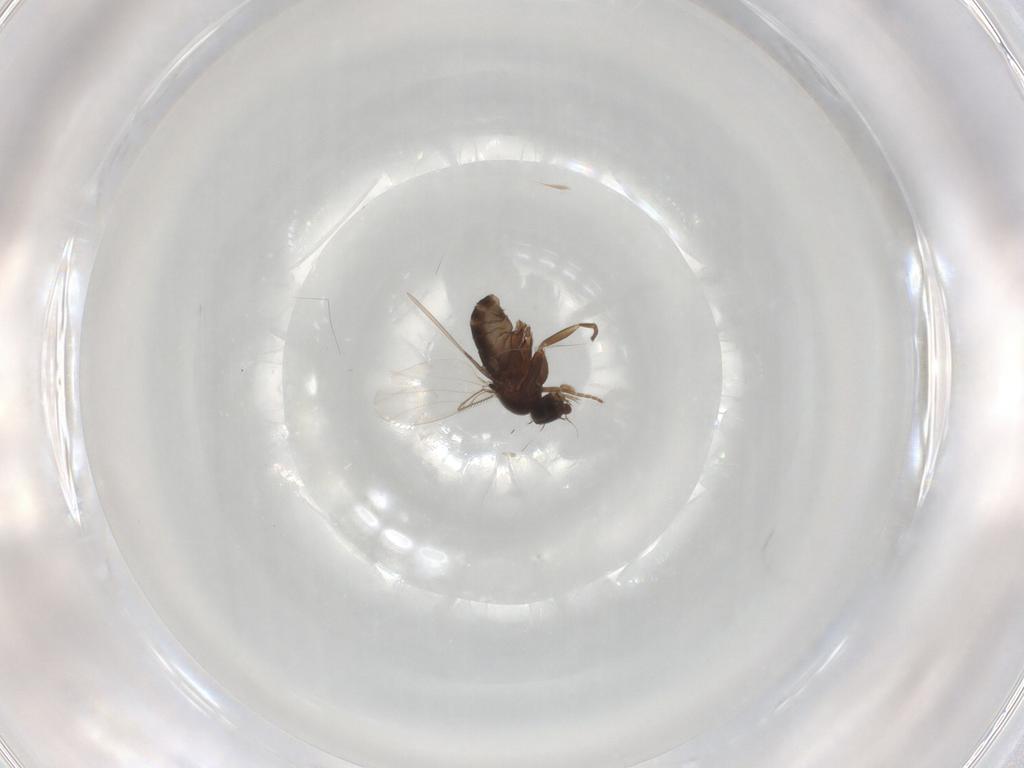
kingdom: Animalia
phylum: Arthropoda
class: Insecta
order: Diptera
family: Phoridae
